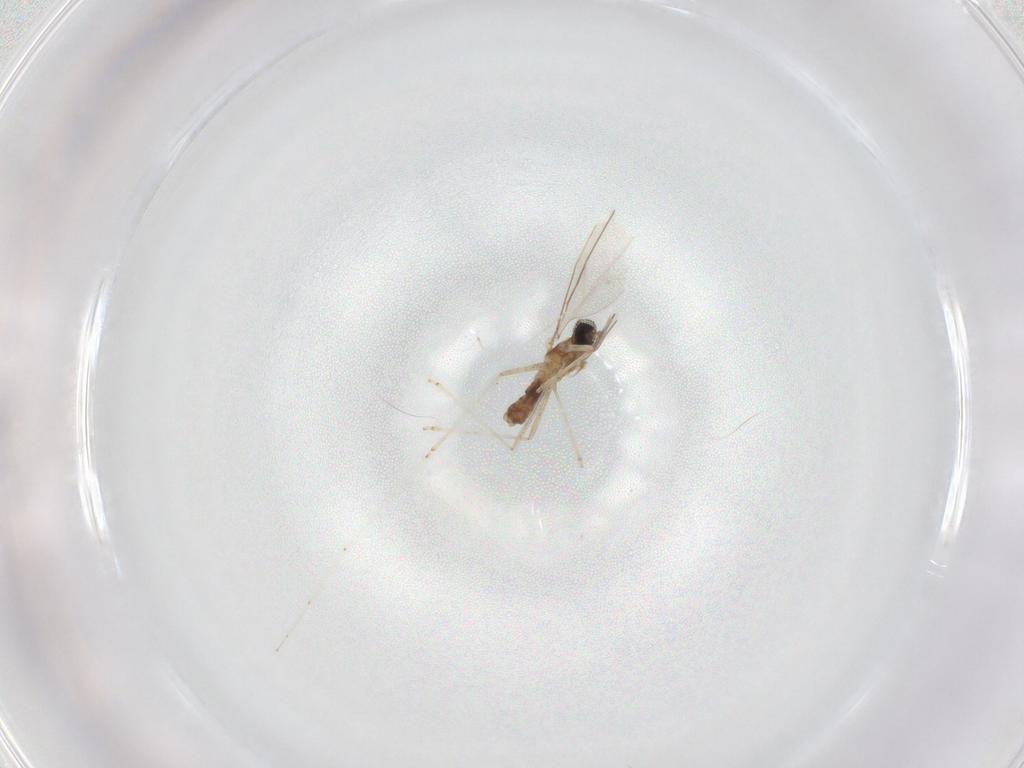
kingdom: Animalia
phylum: Arthropoda
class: Insecta
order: Diptera
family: Cecidomyiidae
